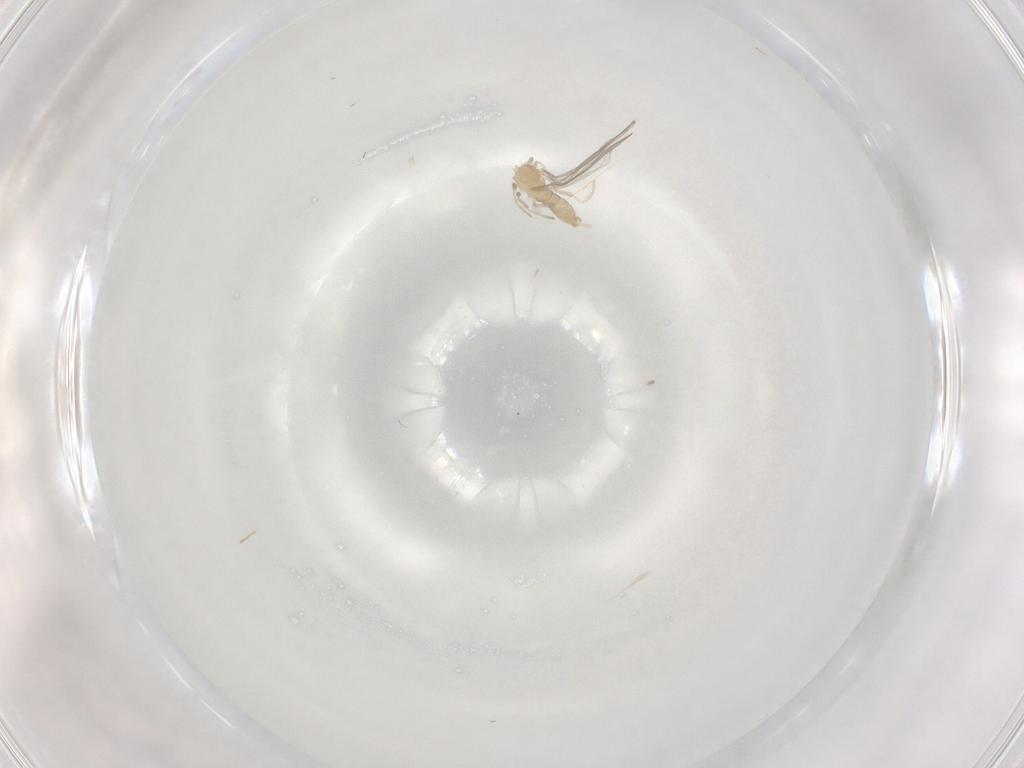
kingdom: Animalia
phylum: Arthropoda
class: Insecta
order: Diptera
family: Cecidomyiidae
